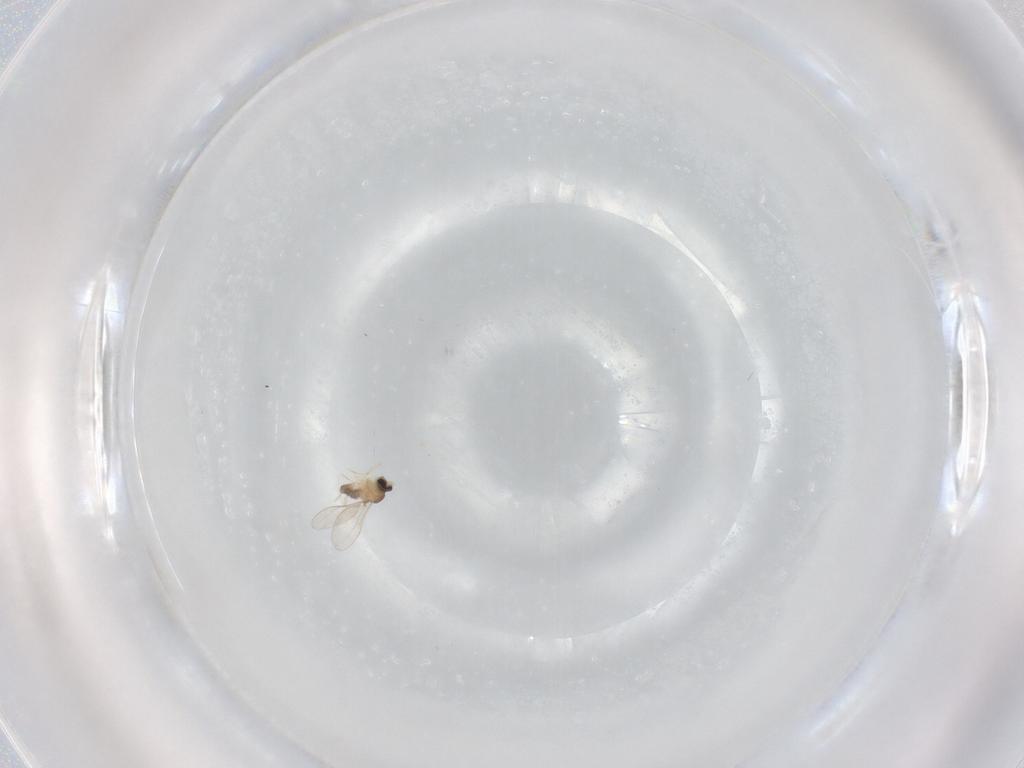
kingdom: Animalia
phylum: Arthropoda
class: Insecta
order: Diptera
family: Cecidomyiidae
